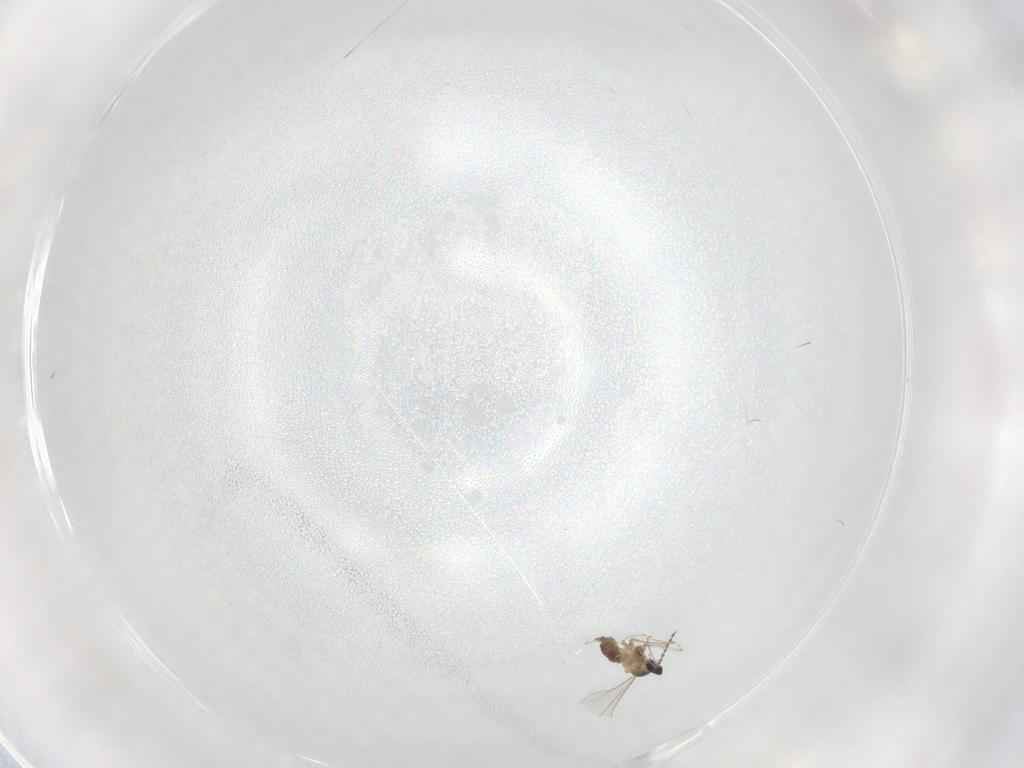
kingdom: Animalia
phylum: Arthropoda
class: Insecta
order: Diptera
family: Cecidomyiidae
